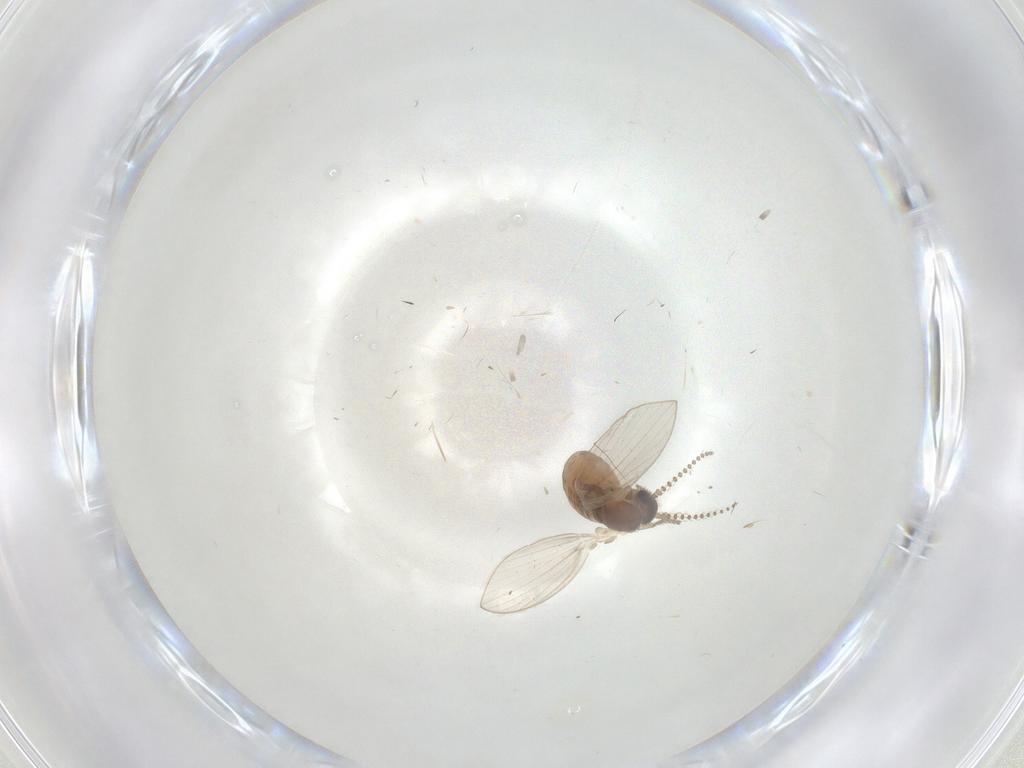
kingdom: Animalia
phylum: Arthropoda
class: Insecta
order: Diptera
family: Psychodidae
